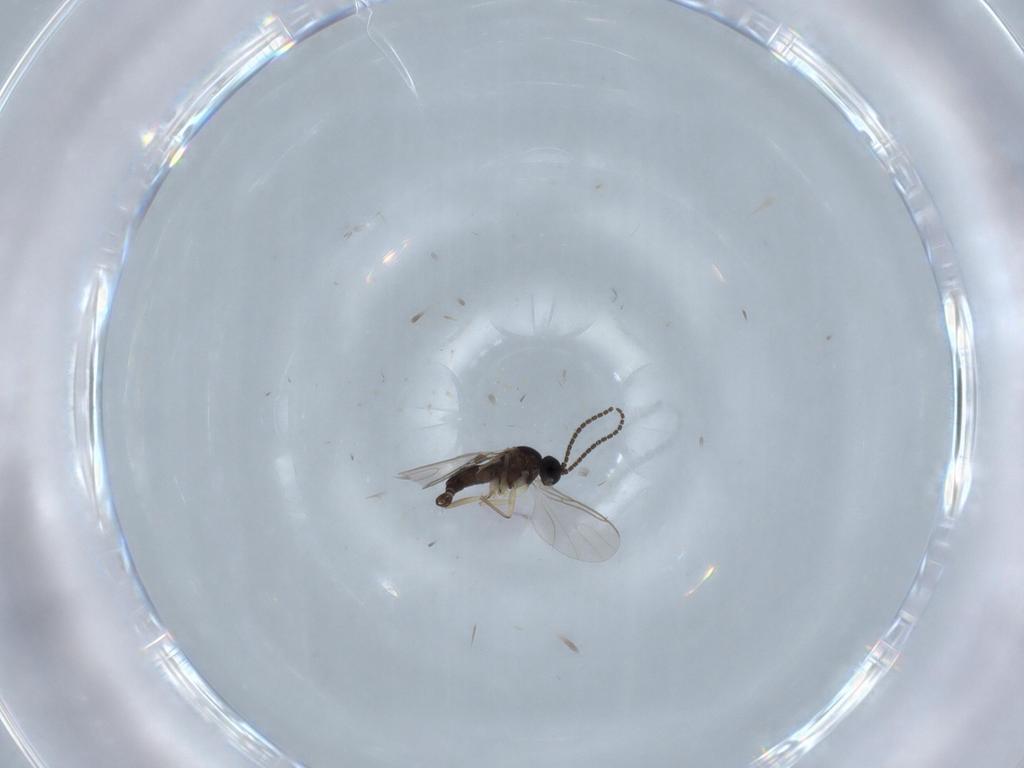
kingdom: Animalia
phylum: Arthropoda
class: Insecta
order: Diptera
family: Sciaridae
